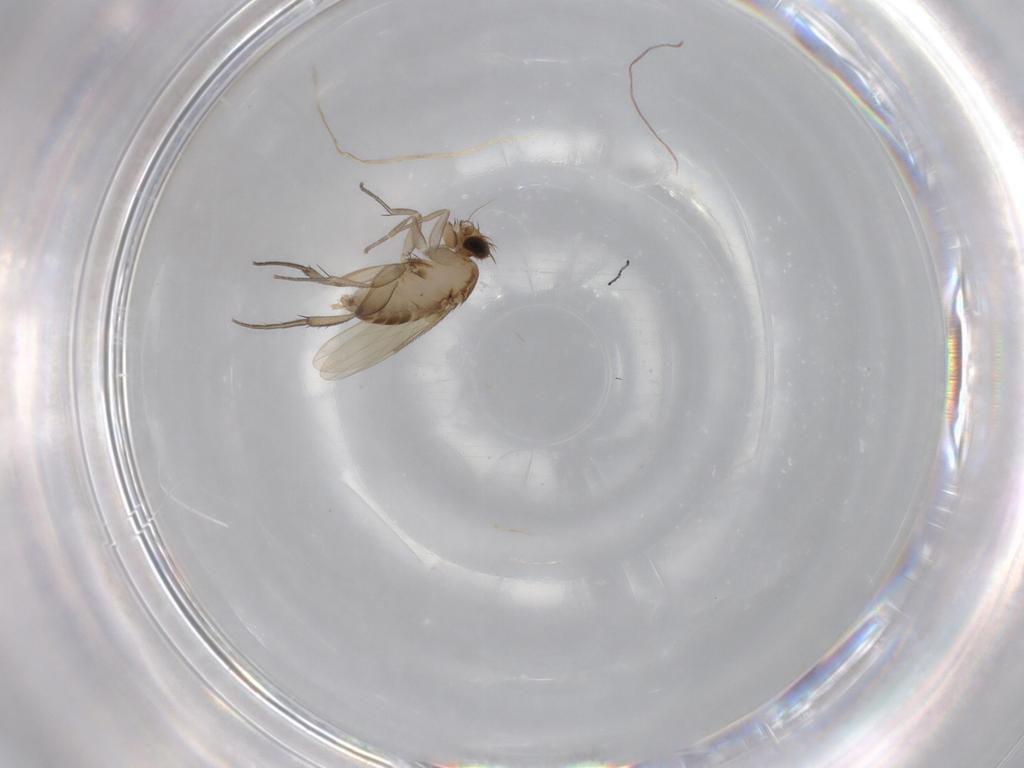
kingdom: Animalia
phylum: Arthropoda
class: Insecta
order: Diptera
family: Phoridae
